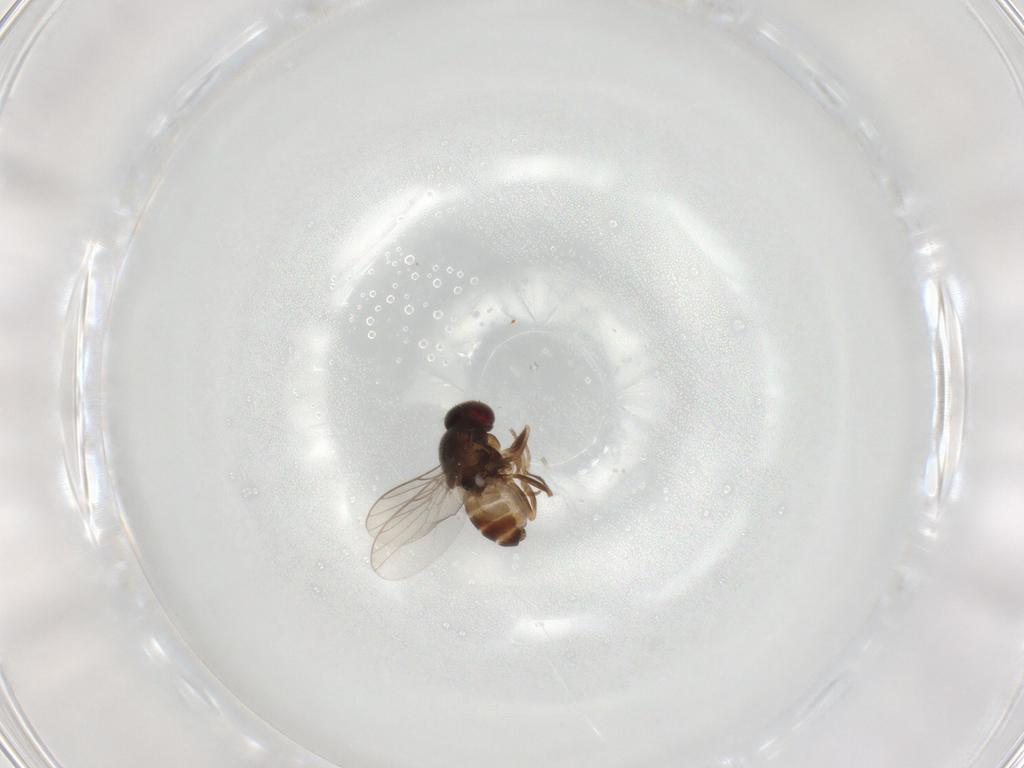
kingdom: Animalia
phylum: Arthropoda
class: Insecta
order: Diptera
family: Chloropidae
